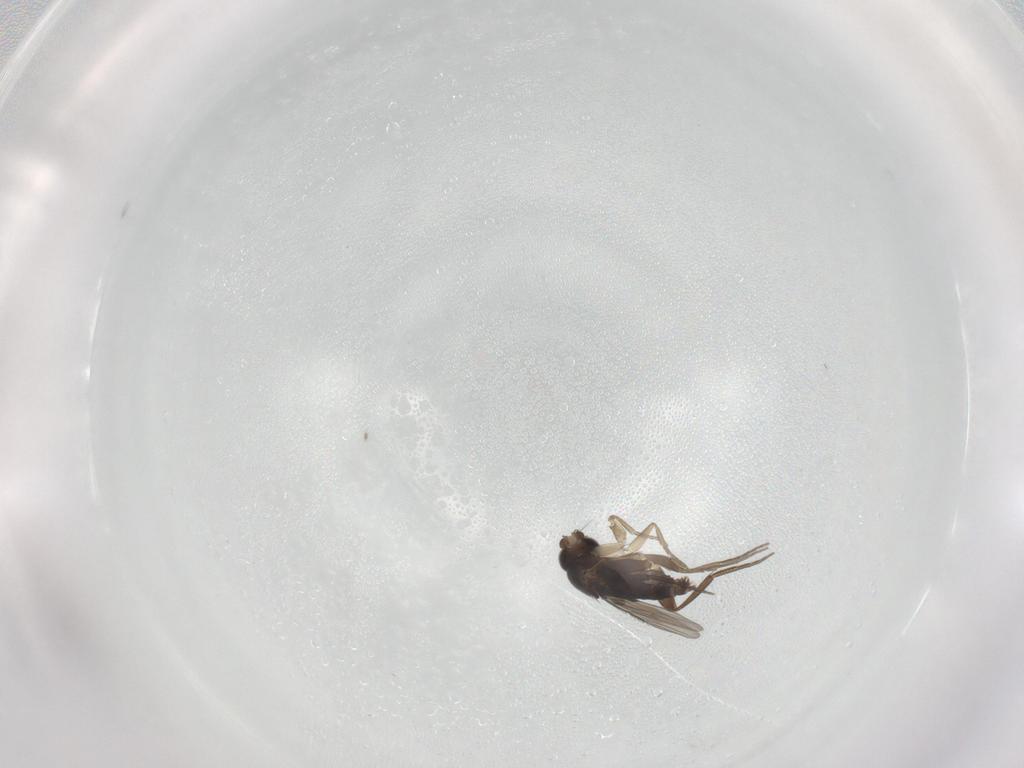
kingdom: Animalia
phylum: Arthropoda
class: Insecta
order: Diptera
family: Phoridae
